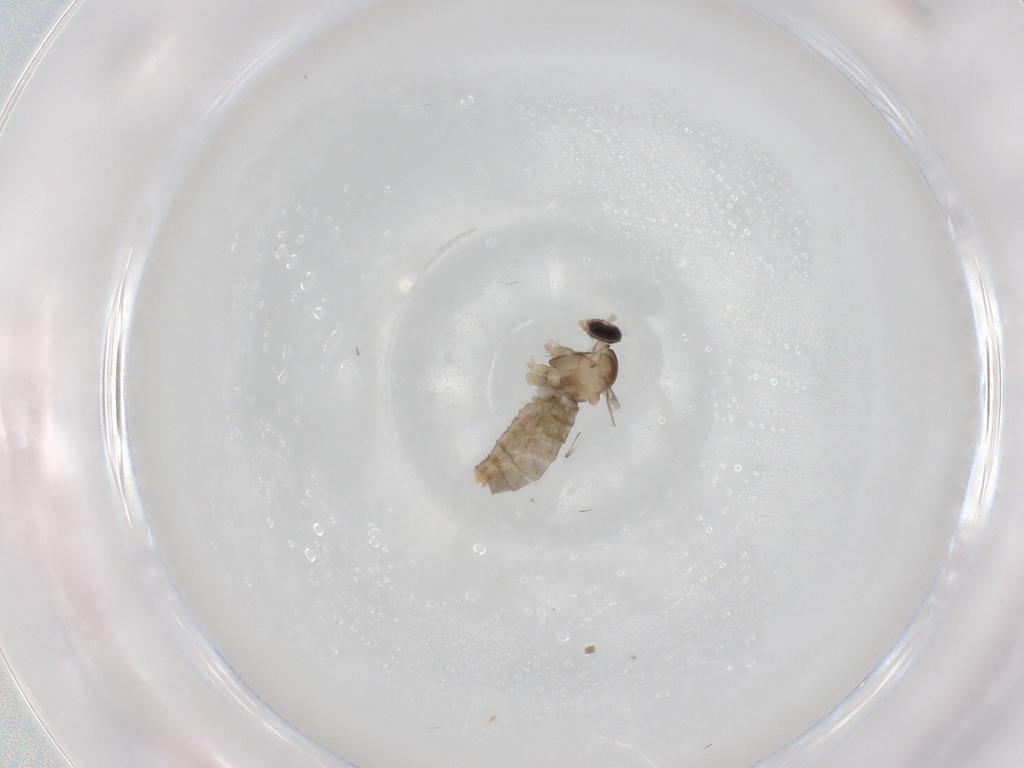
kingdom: Animalia
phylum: Arthropoda
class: Insecta
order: Diptera
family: Cecidomyiidae
